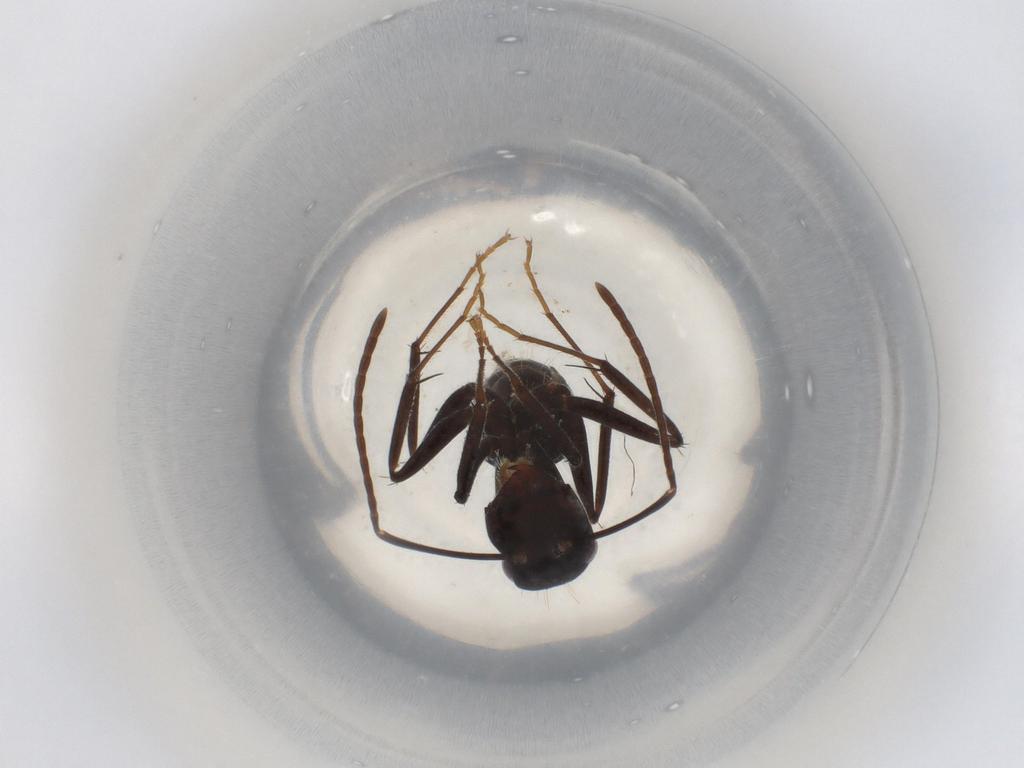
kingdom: Animalia
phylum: Arthropoda
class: Insecta
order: Hymenoptera
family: Formicidae
